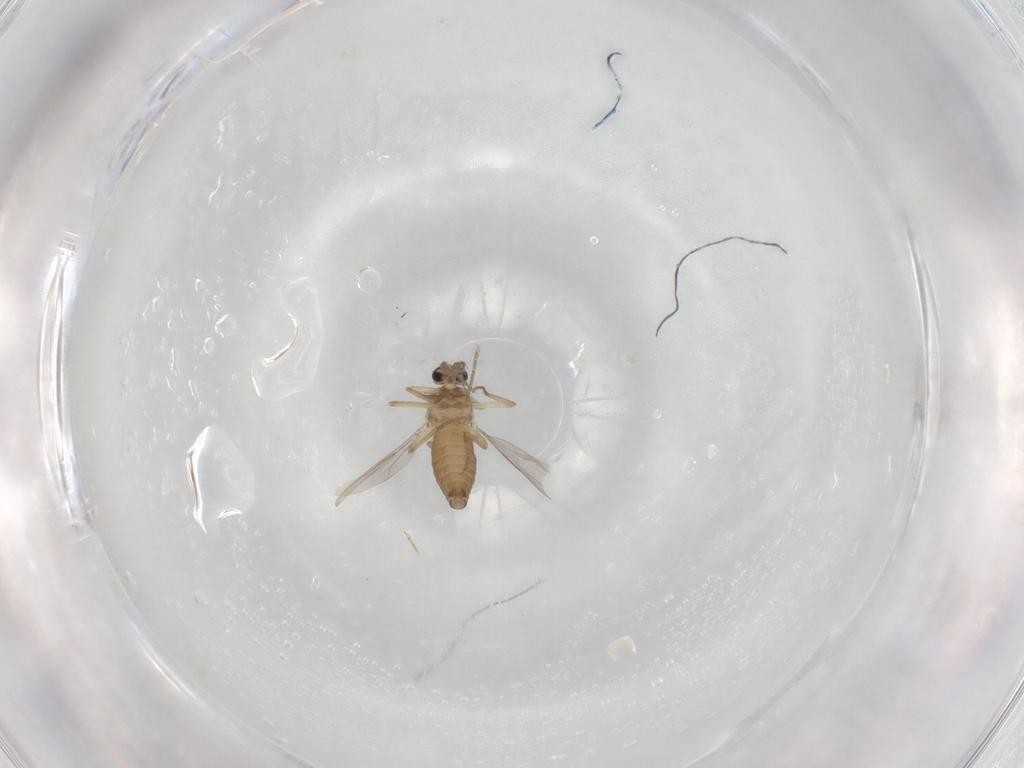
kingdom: Animalia
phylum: Arthropoda
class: Insecta
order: Diptera
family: Ceratopogonidae
